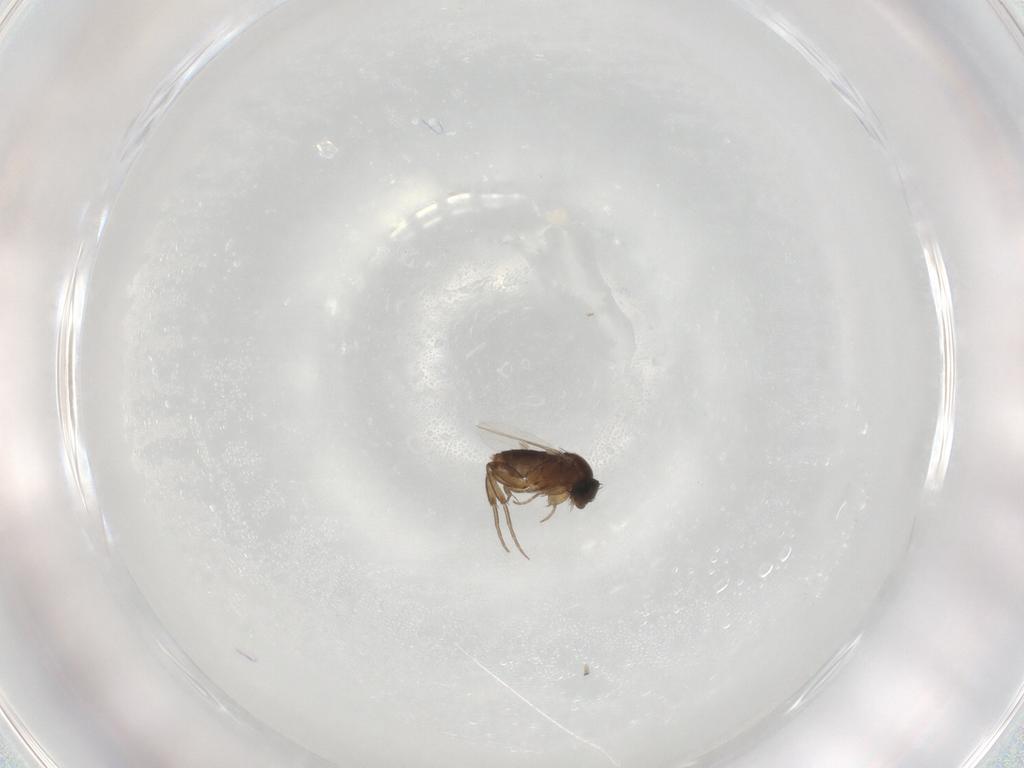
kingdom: Animalia
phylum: Arthropoda
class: Insecta
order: Diptera
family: Phoridae
